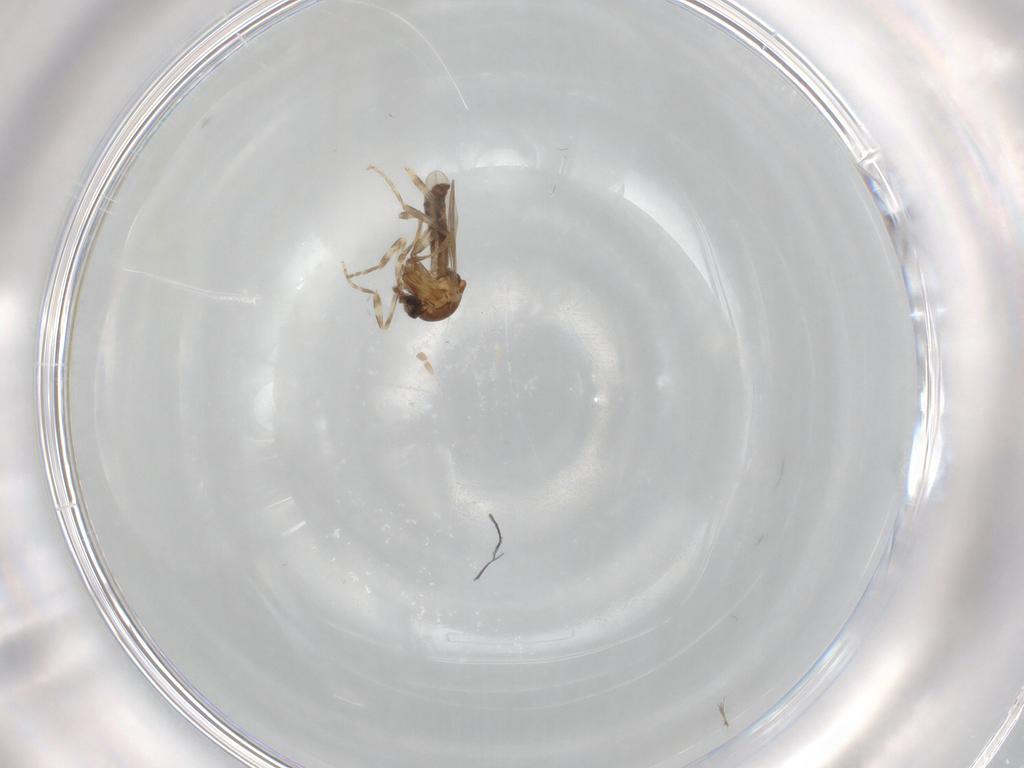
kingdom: Animalia
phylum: Arthropoda
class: Insecta
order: Diptera
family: Ceratopogonidae
